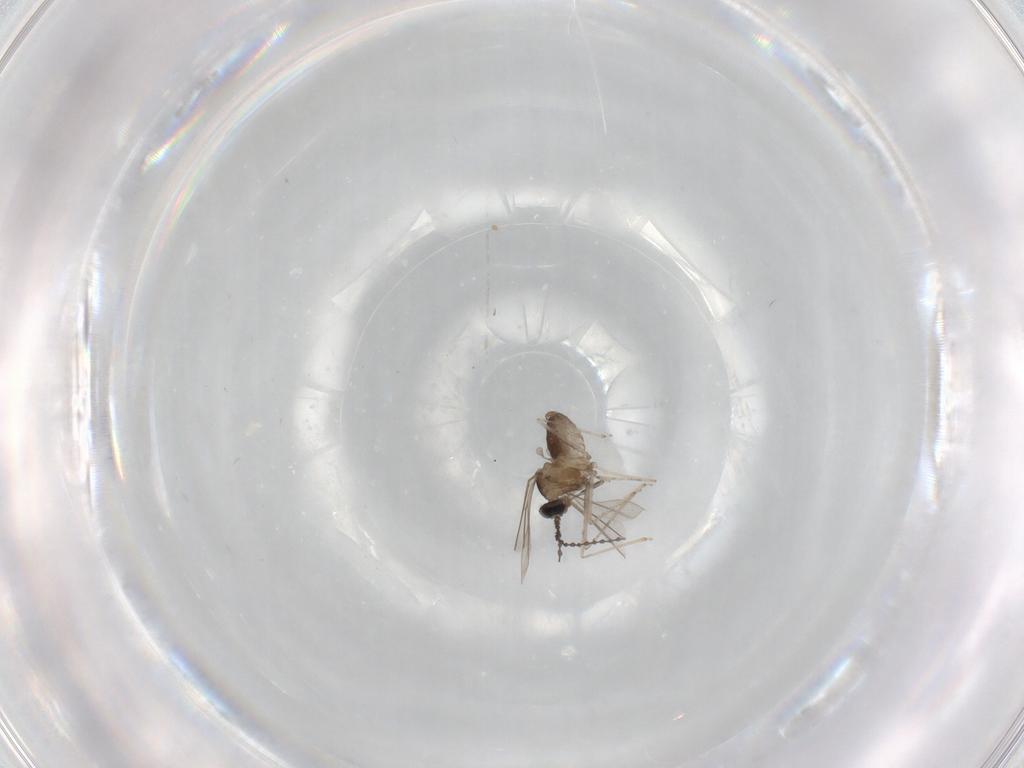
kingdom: Animalia
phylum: Arthropoda
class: Insecta
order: Diptera
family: Cecidomyiidae
